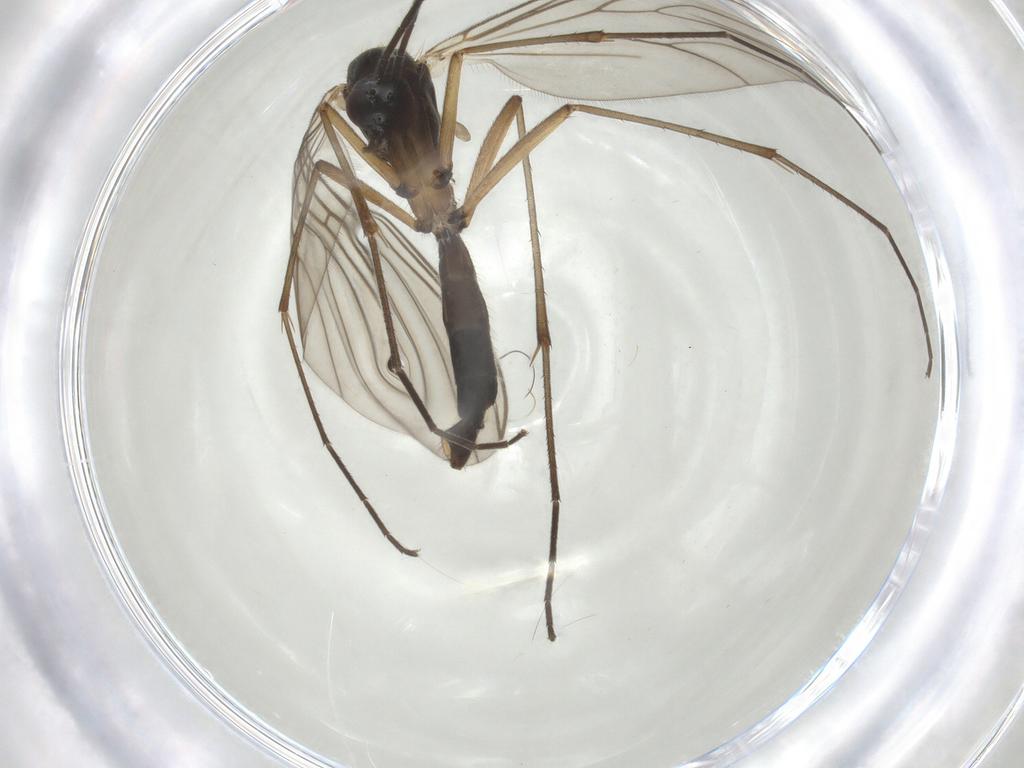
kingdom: Animalia
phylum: Arthropoda
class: Insecta
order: Diptera
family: Mycetophilidae
